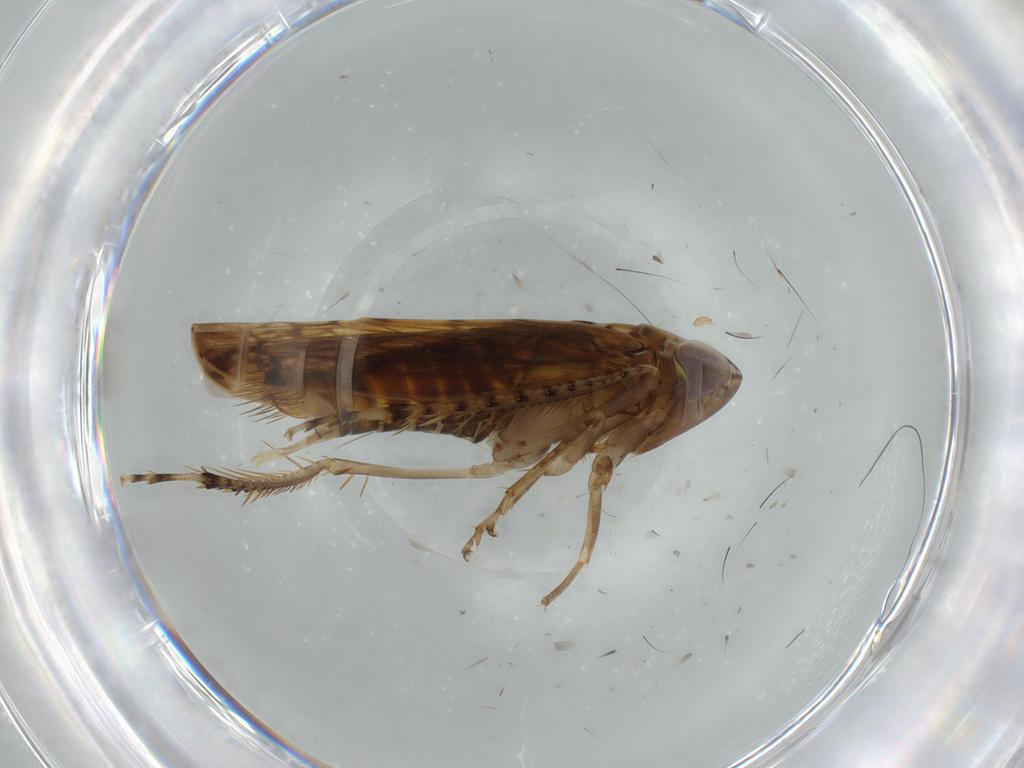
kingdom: Animalia
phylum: Arthropoda
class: Insecta
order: Hemiptera
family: Cicadellidae
